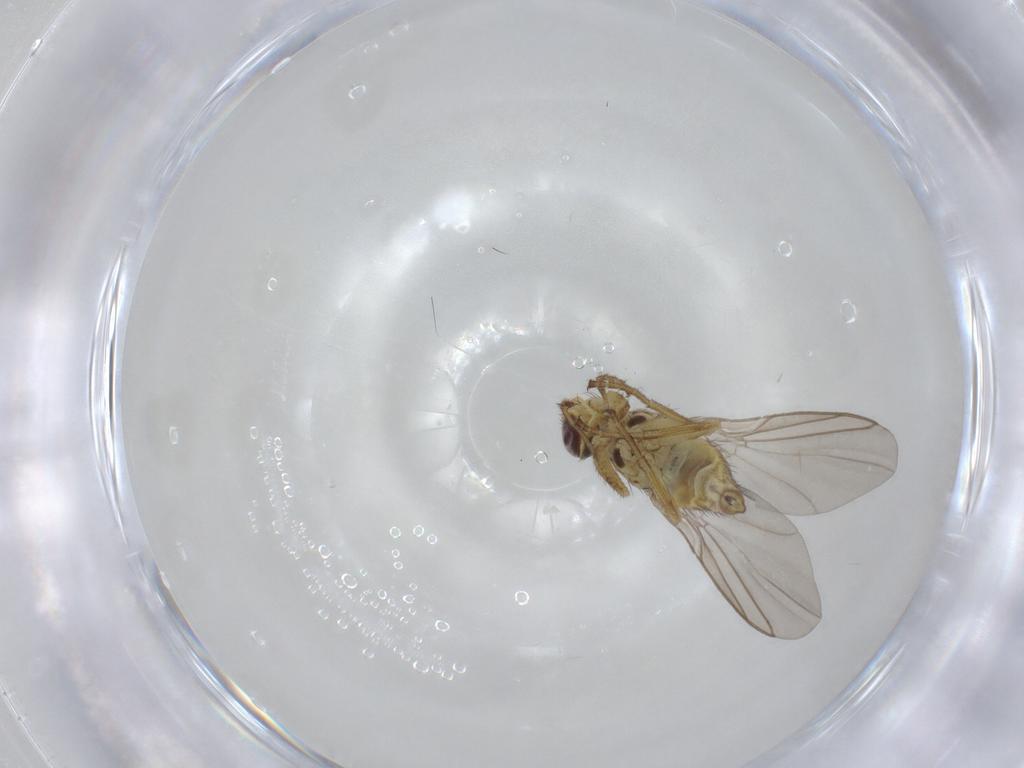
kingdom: Animalia
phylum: Arthropoda
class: Insecta
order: Diptera
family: Agromyzidae
